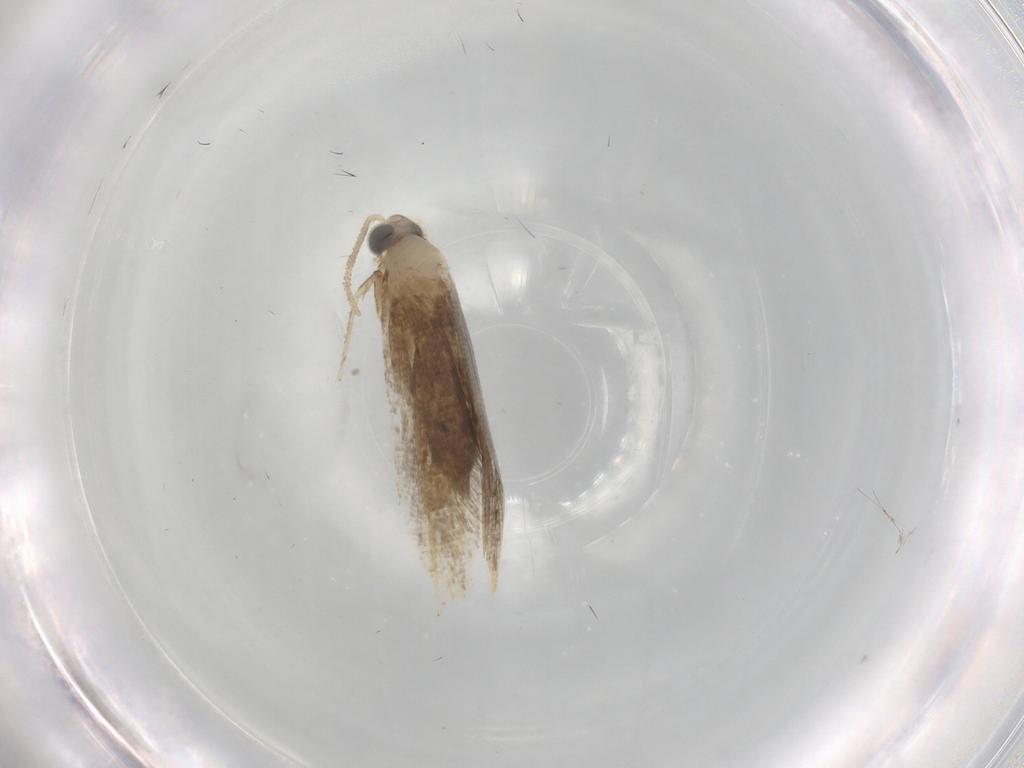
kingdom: Animalia
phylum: Arthropoda
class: Insecta
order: Lepidoptera
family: Tineidae
